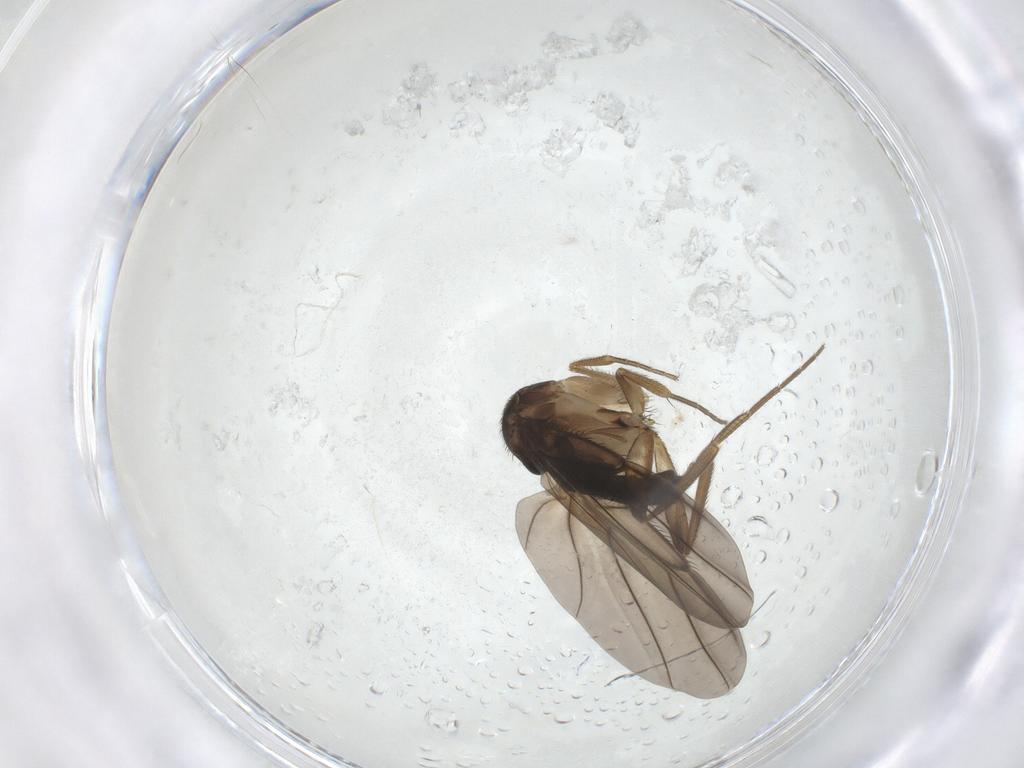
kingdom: Animalia
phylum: Arthropoda
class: Insecta
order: Diptera
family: Phoridae
